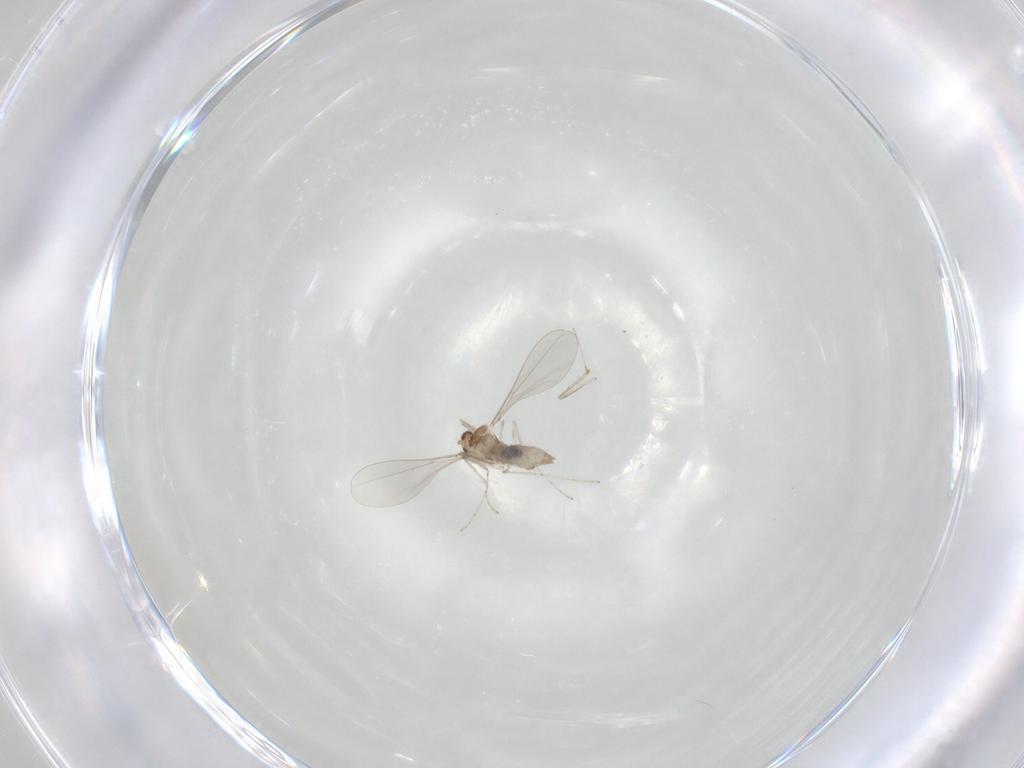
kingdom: Animalia
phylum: Arthropoda
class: Insecta
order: Diptera
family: Cecidomyiidae
